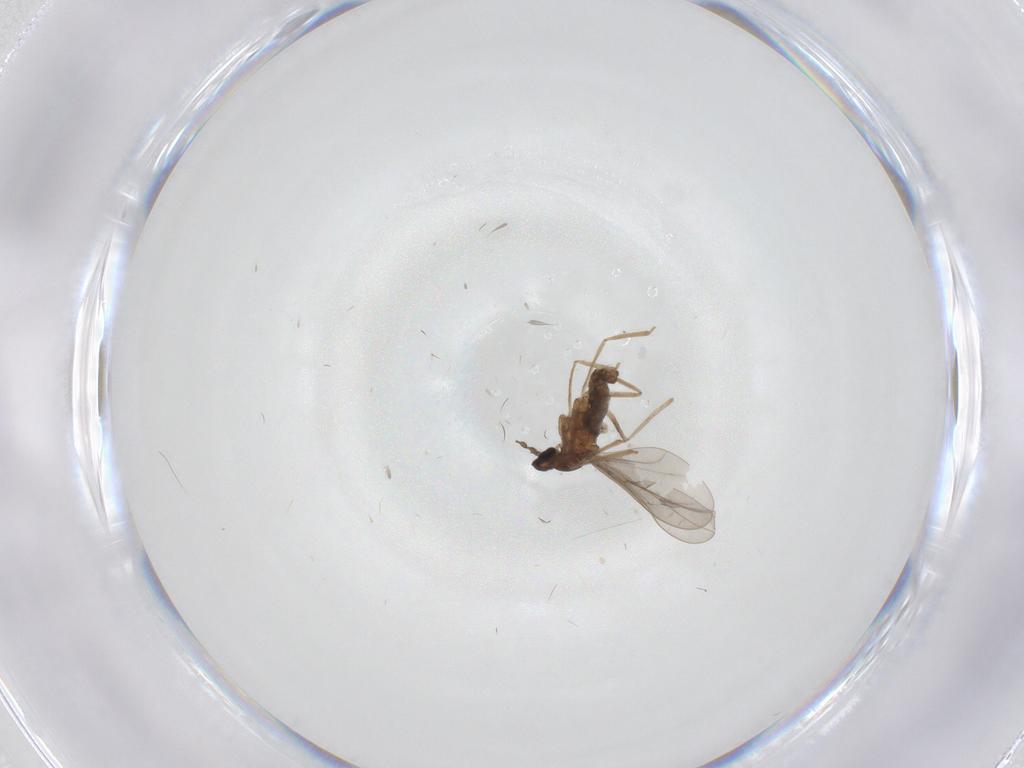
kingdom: Animalia
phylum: Arthropoda
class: Insecta
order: Diptera
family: Cecidomyiidae
